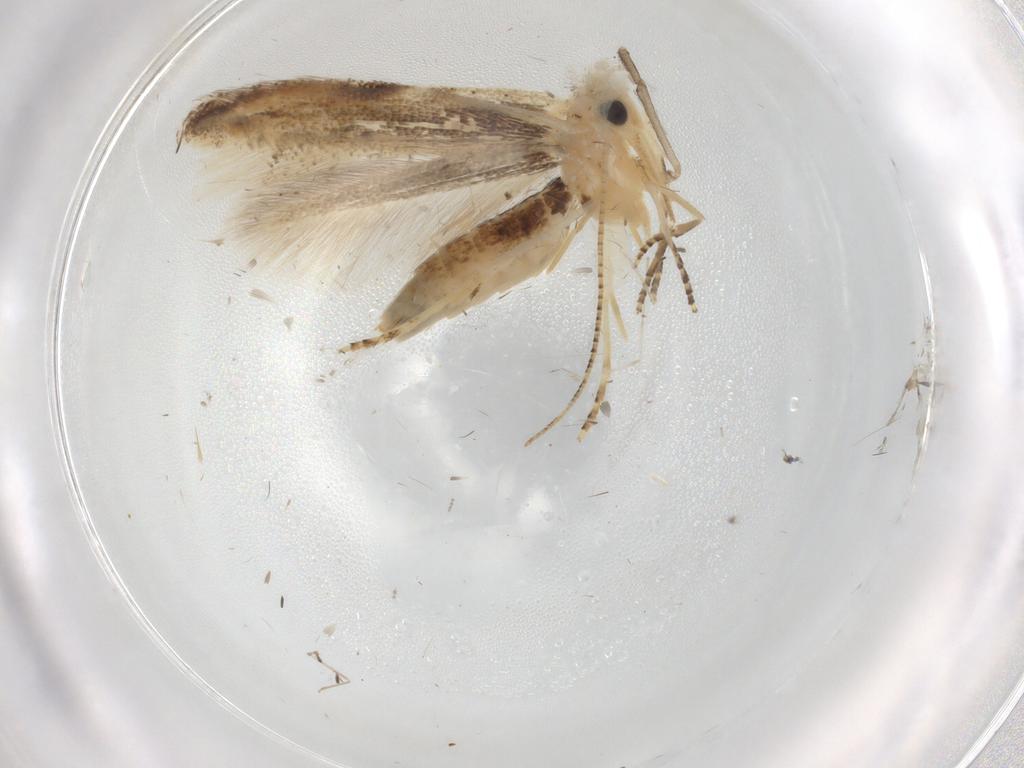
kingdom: Animalia
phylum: Arthropoda
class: Insecta
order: Lepidoptera
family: Bucculatricidae
